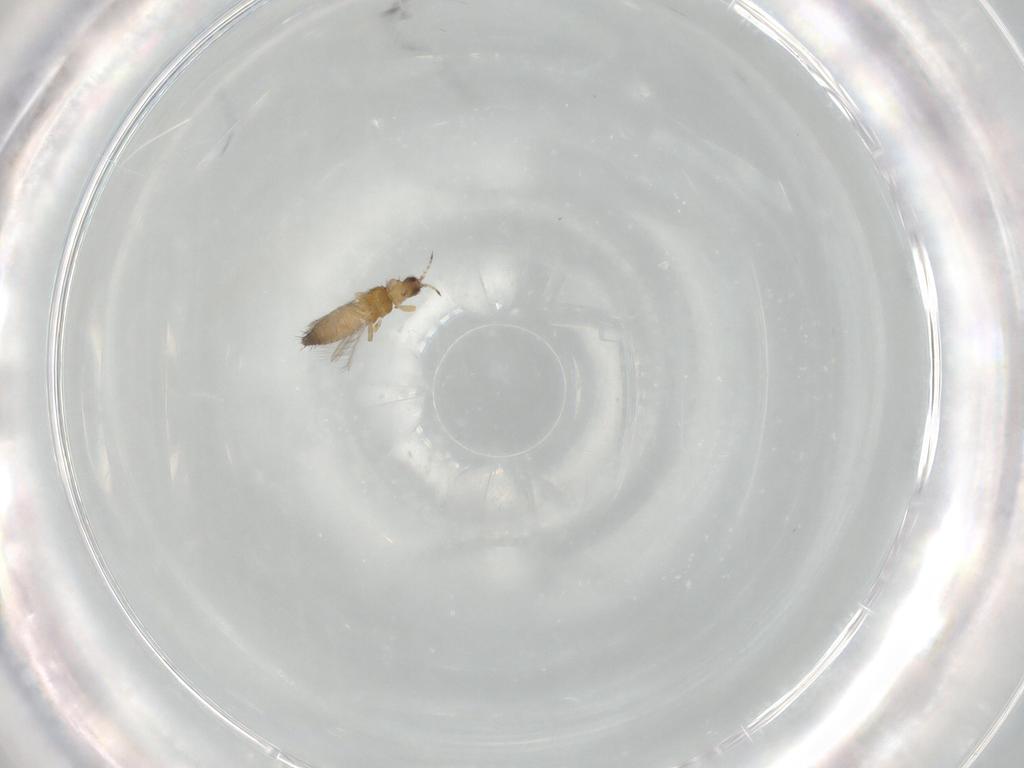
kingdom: Animalia
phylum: Arthropoda
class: Insecta
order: Thysanoptera
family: Thripidae
